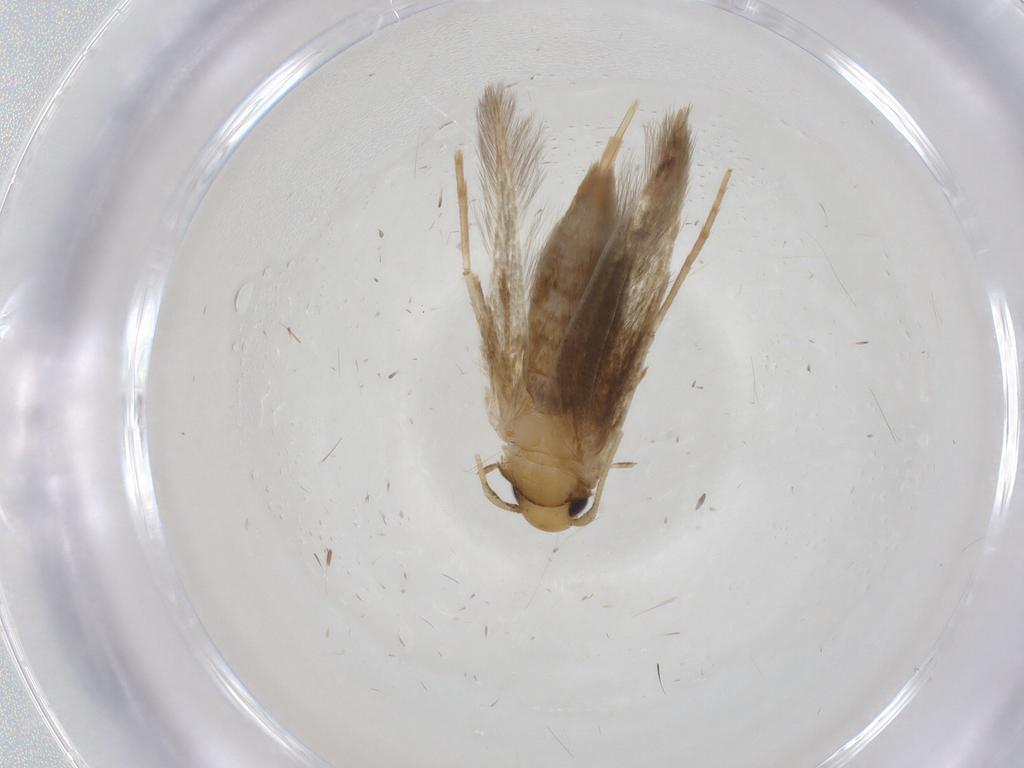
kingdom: Animalia
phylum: Arthropoda
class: Insecta
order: Lepidoptera
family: Tineidae
